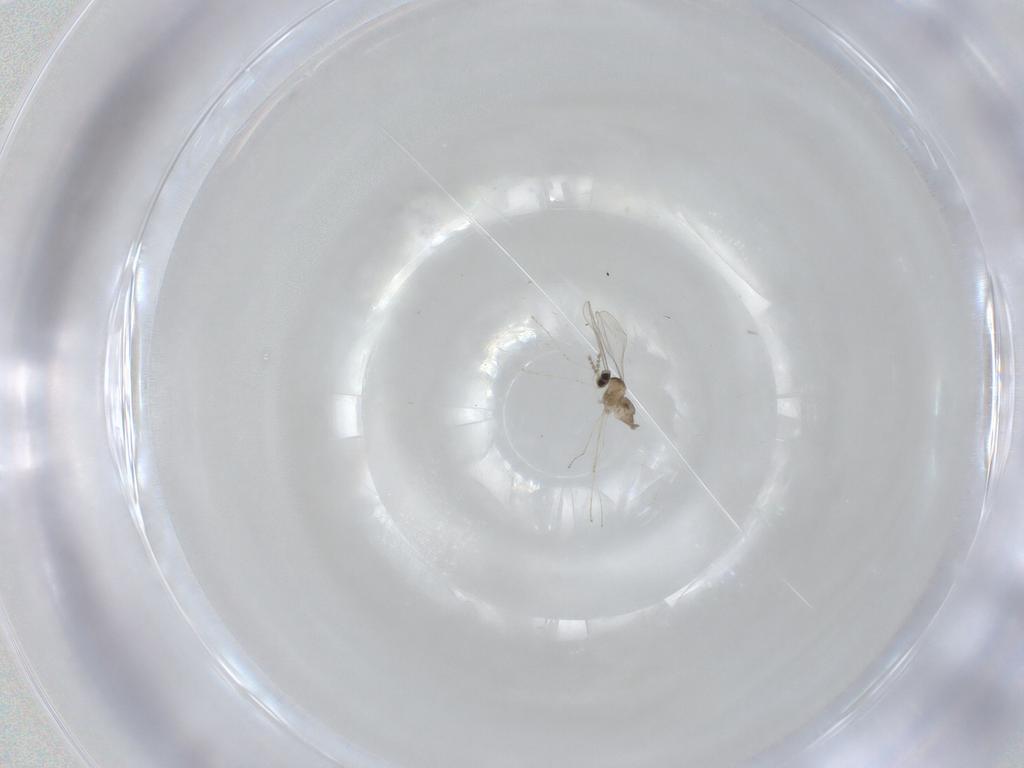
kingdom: Animalia
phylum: Arthropoda
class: Insecta
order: Diptera
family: Cecidomyiidae
